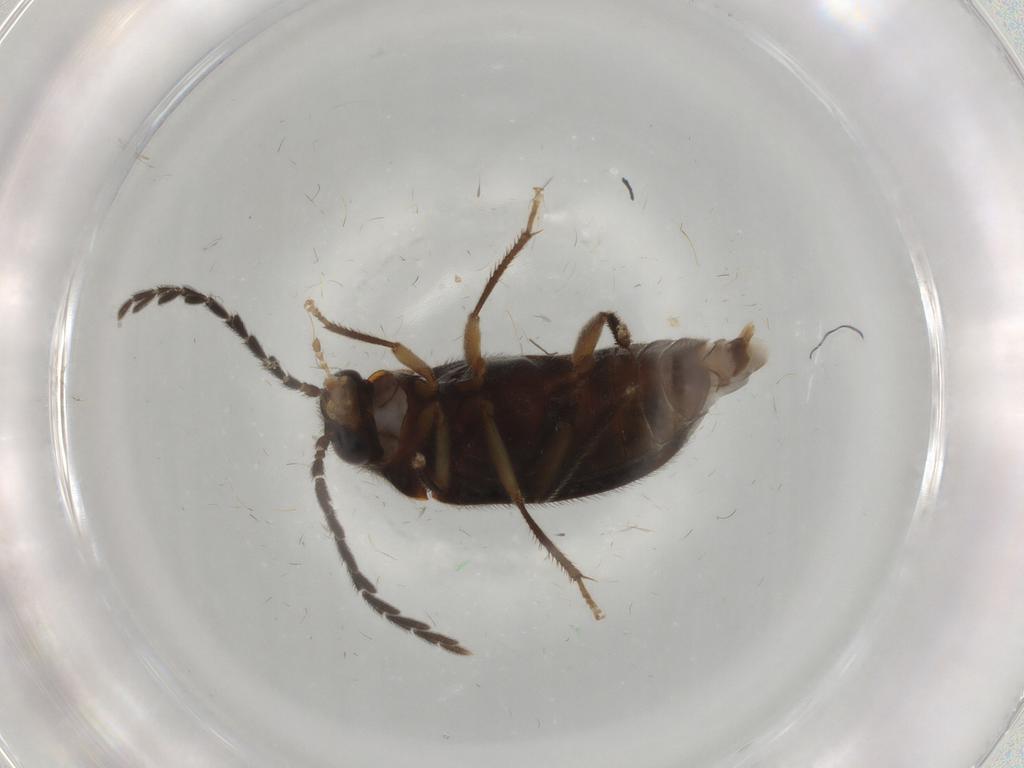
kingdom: Animalia
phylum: Arthropoda
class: Insecta
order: Coleoptera
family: Ptilodactylidae
